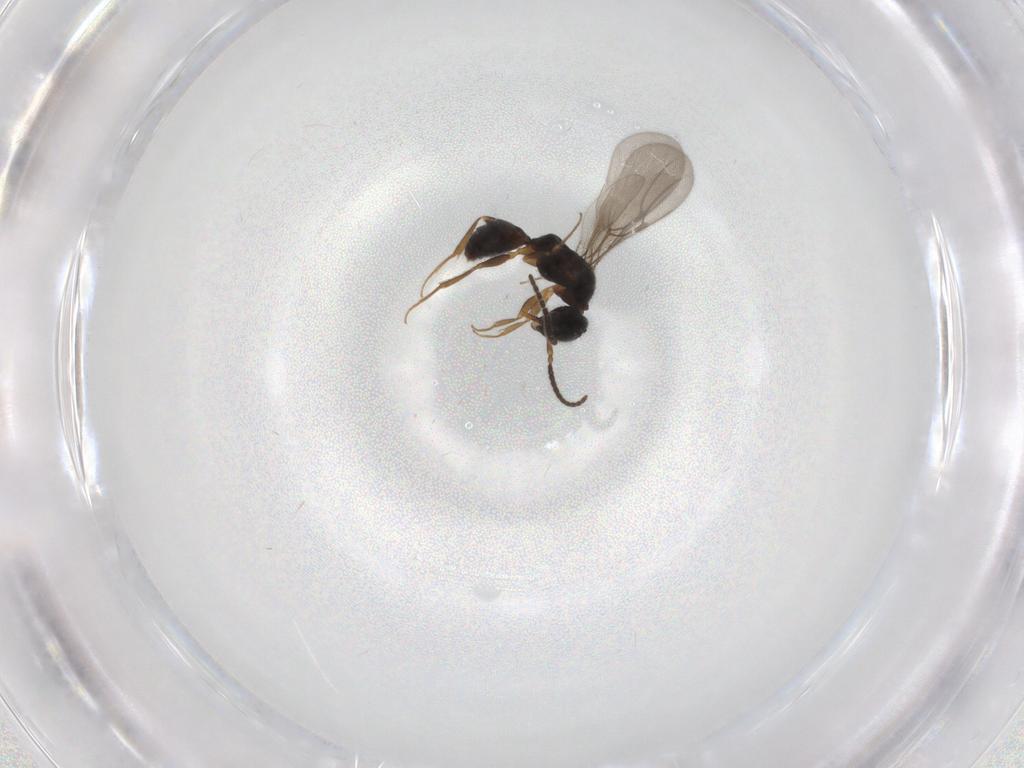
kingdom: Animalia
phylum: Arthropoda
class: Insecta
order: Hymenoptera
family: Bethylidae
